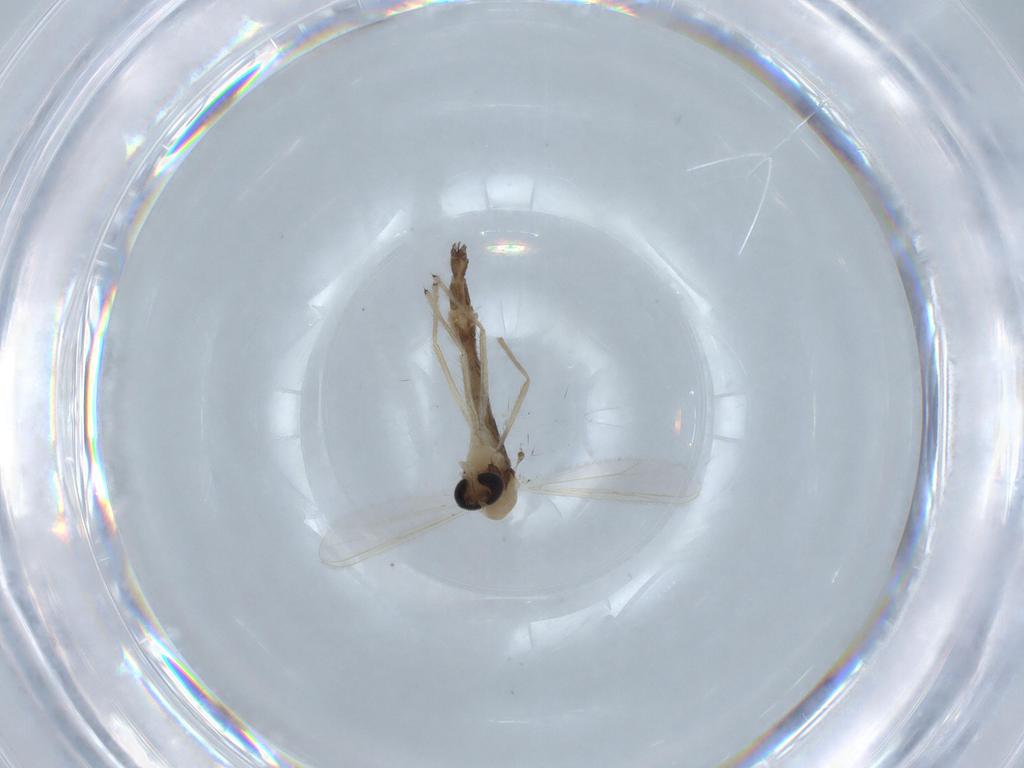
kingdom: Animalia
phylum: Arthropoda
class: Insecta
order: Diptera
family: Chironomidae
